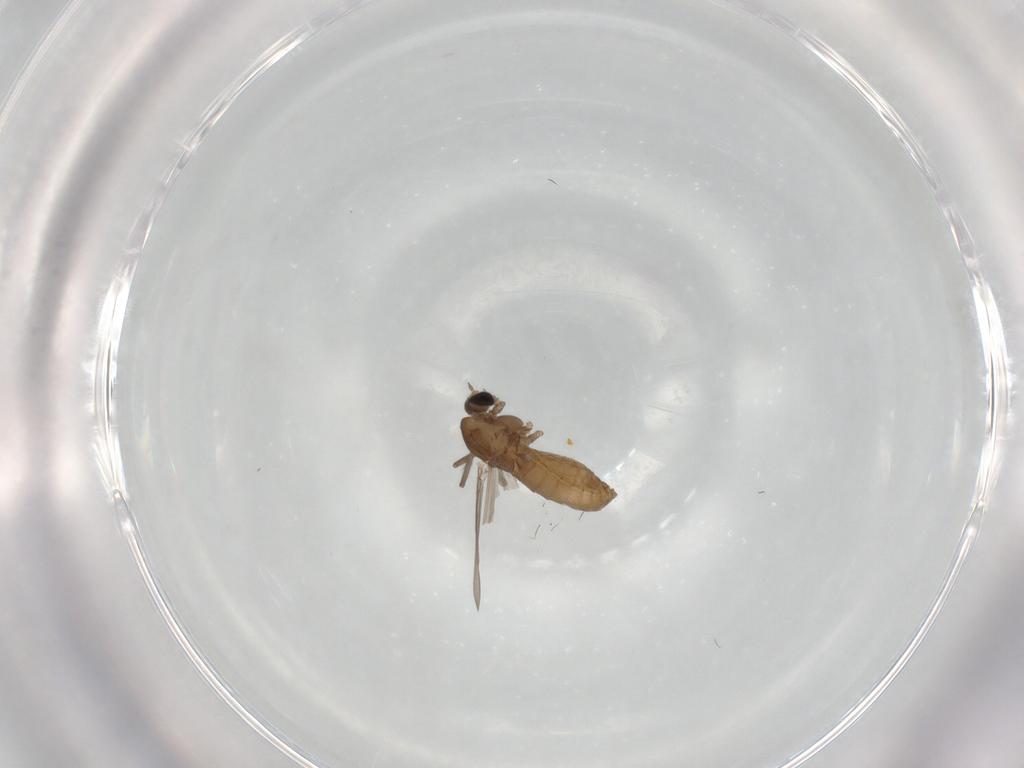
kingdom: Animalia
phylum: Arthropoda
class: Insecta
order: Diptera
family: Chironomidae
